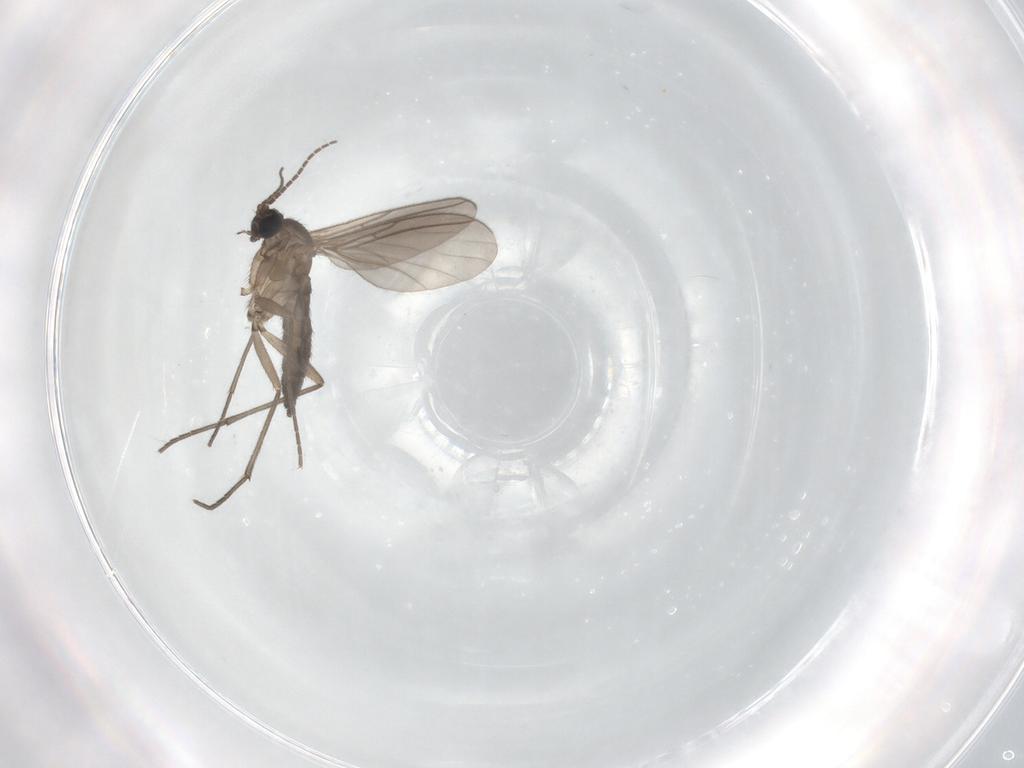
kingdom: Animalia
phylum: Arthropoda
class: Insecta
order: Diptera
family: Sciaridae
